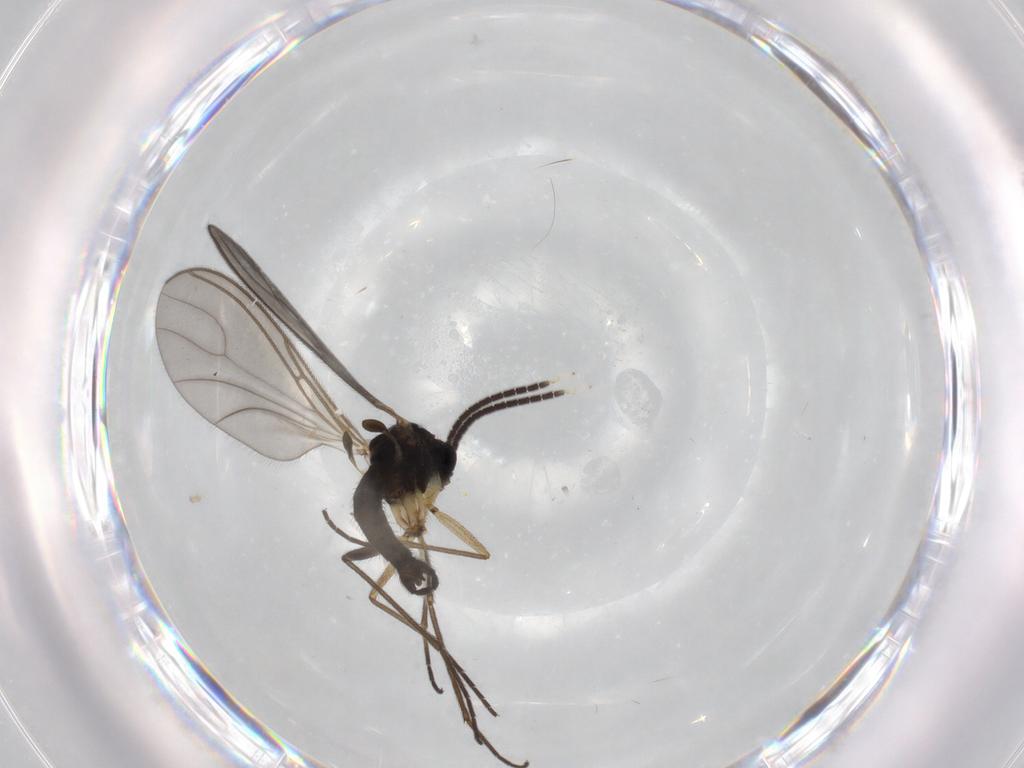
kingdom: Animalia
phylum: Arthropoda
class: Insecta
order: Diptera
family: Sciaridae
